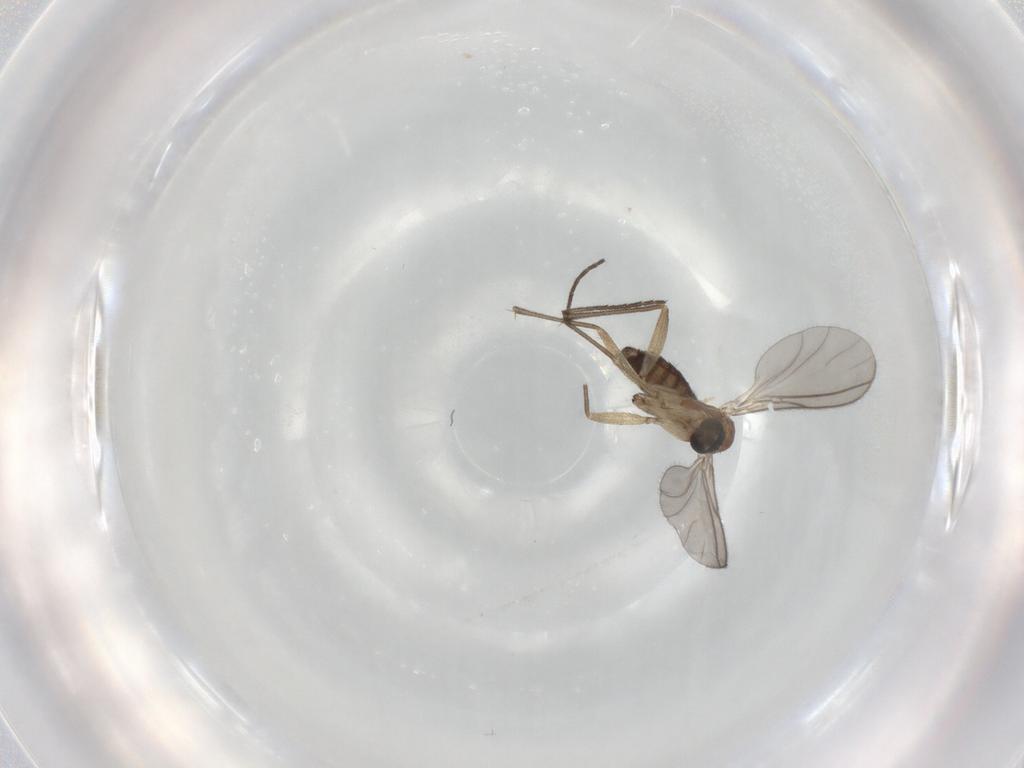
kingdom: Animalia
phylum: Arthropoda
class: Insecta
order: Diptera
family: Sciaridae
